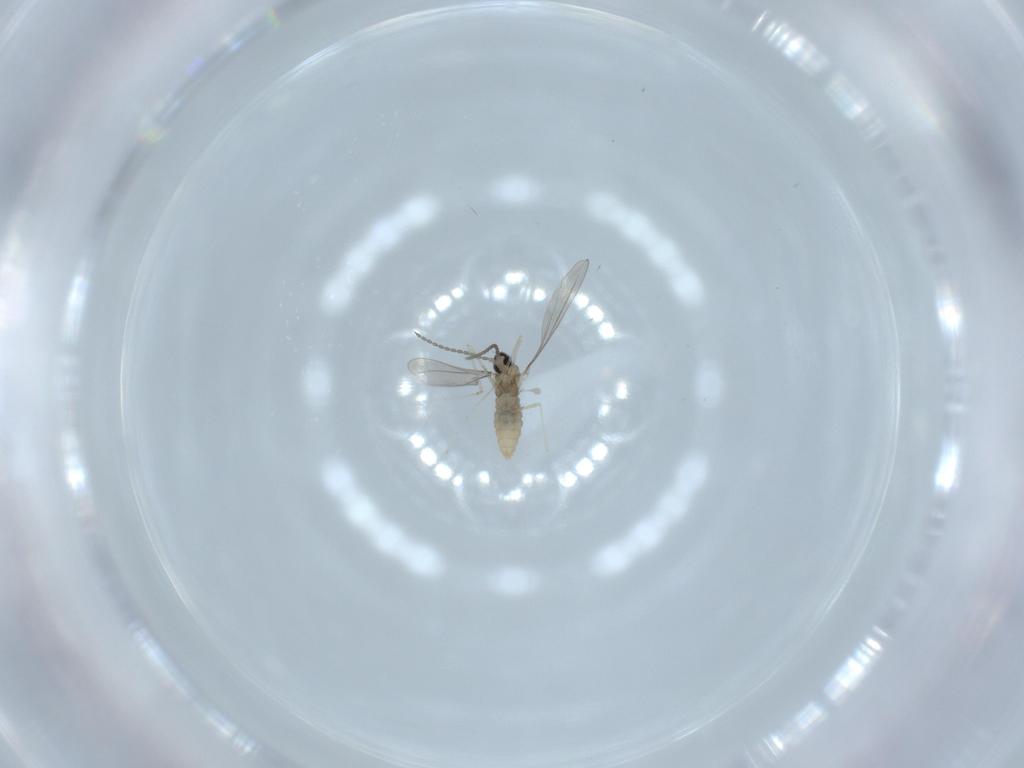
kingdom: Animalia
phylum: Arthropoda
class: Insecta
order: Diptera
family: Cecidomyiidae
